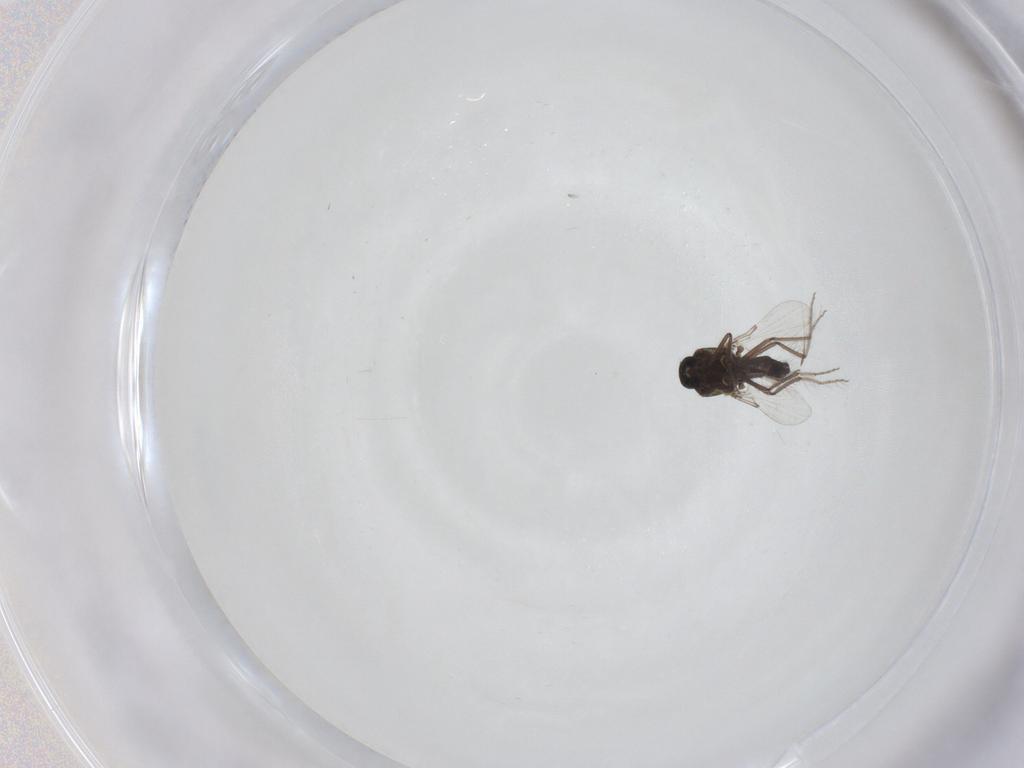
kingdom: Animalia
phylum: Arthropoda
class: Insecta
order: Diptera
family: Ceratopogonidae
